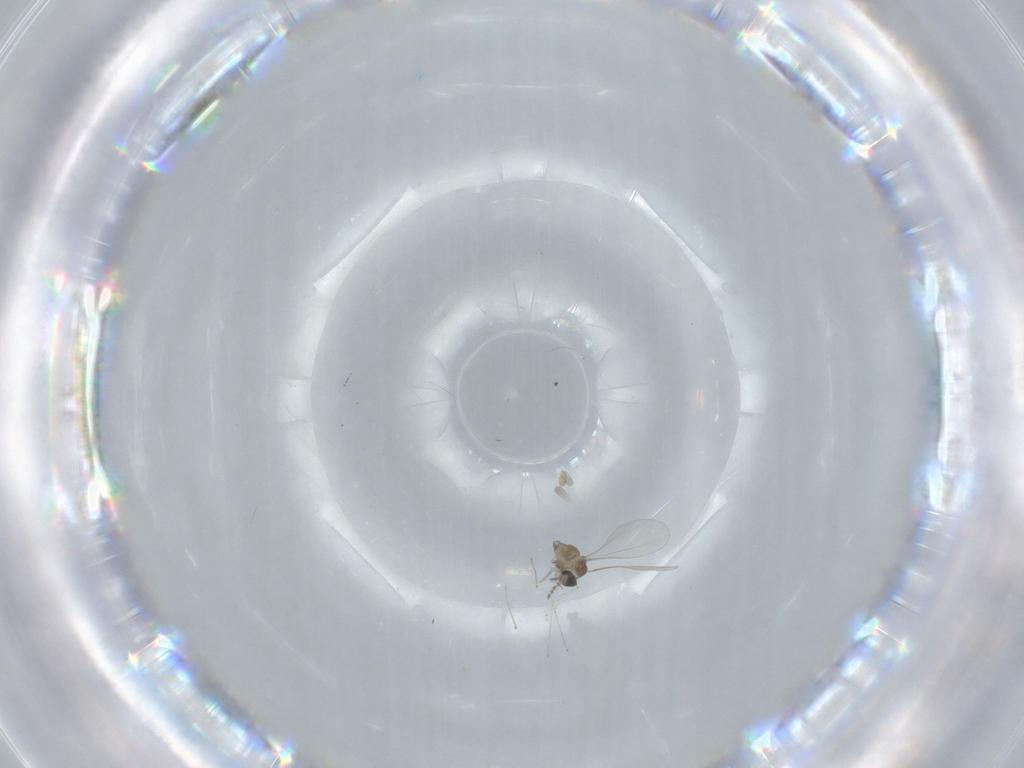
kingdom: Animalia
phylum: Arthropoda
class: Insecta
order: Diptera
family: Cecidomyiidae
